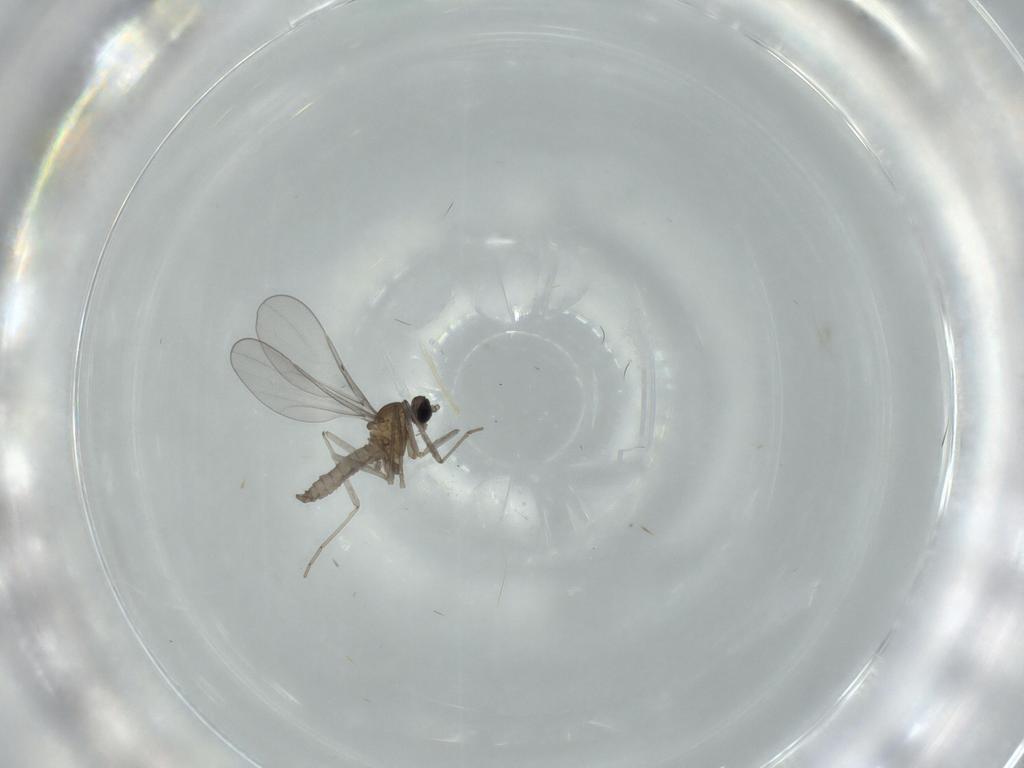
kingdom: Animalia
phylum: Arthropoda
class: Insecta
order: Diptera
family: Cecidomyiidae
